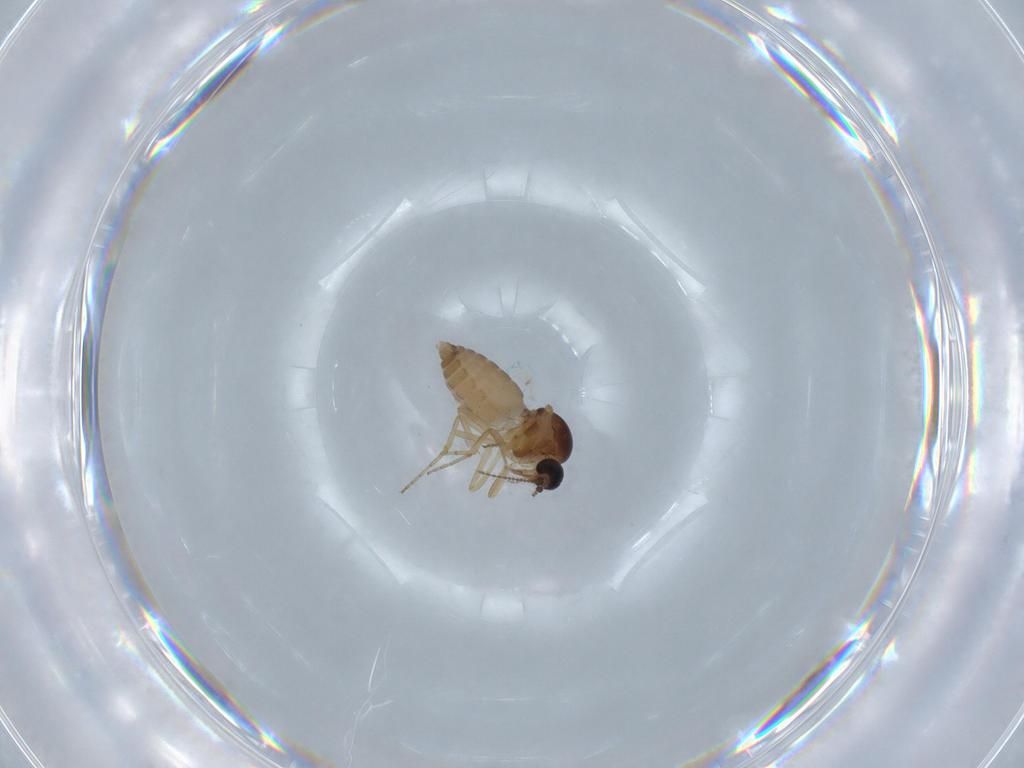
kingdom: Animalia
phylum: Arthropoda
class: Insecta
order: Diptera
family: Ceratopogonidae
